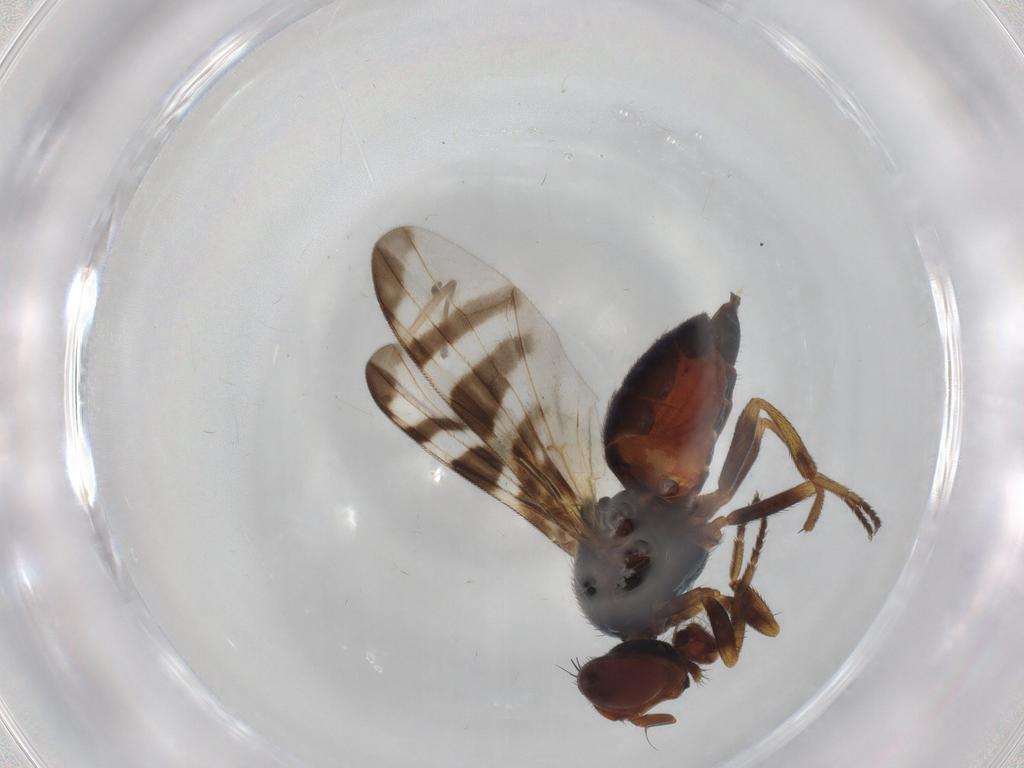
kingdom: Animalia
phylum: Arthropoda
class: Insecta
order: Diptera
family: Platystomatidae
